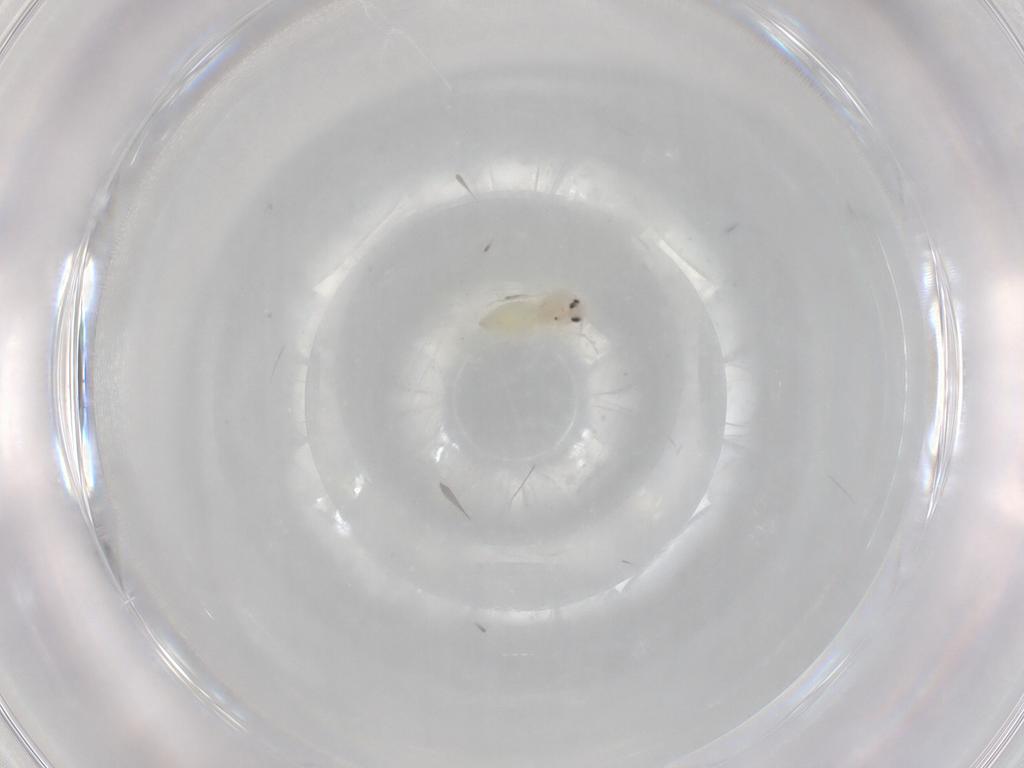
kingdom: Animalia
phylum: Arthropoda
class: Insecta
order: Hemiptera
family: Aleyrodidae
